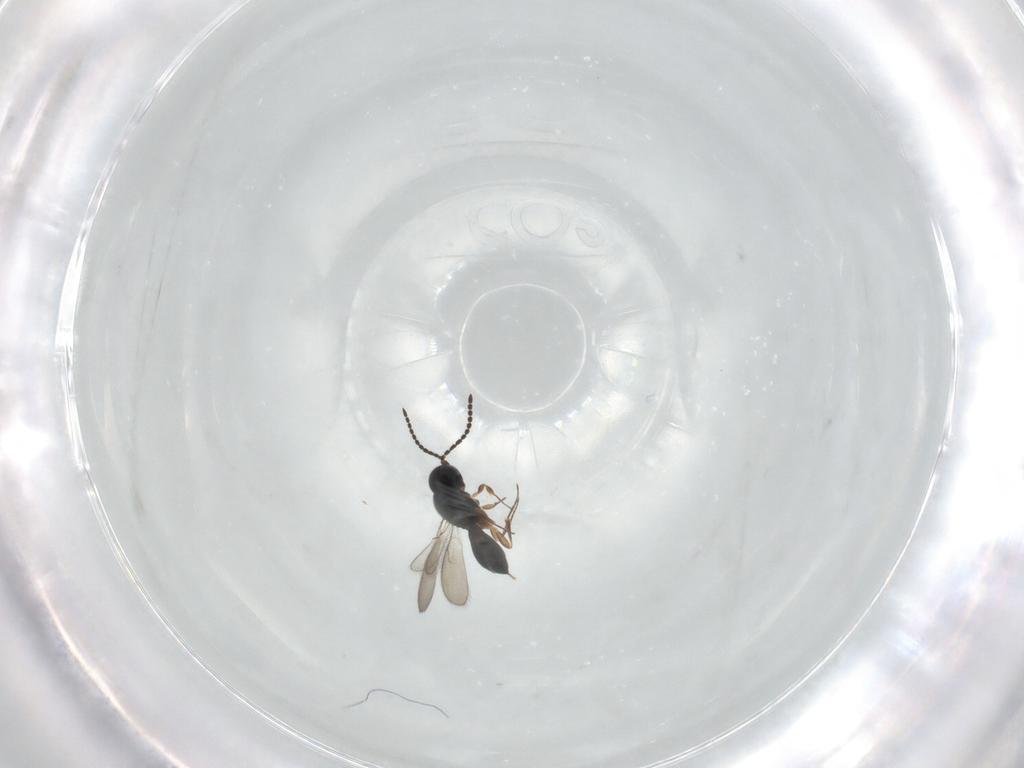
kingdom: Animalia
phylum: Arthropoda
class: Insecta
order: Hymenoptera
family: Scelionidae
